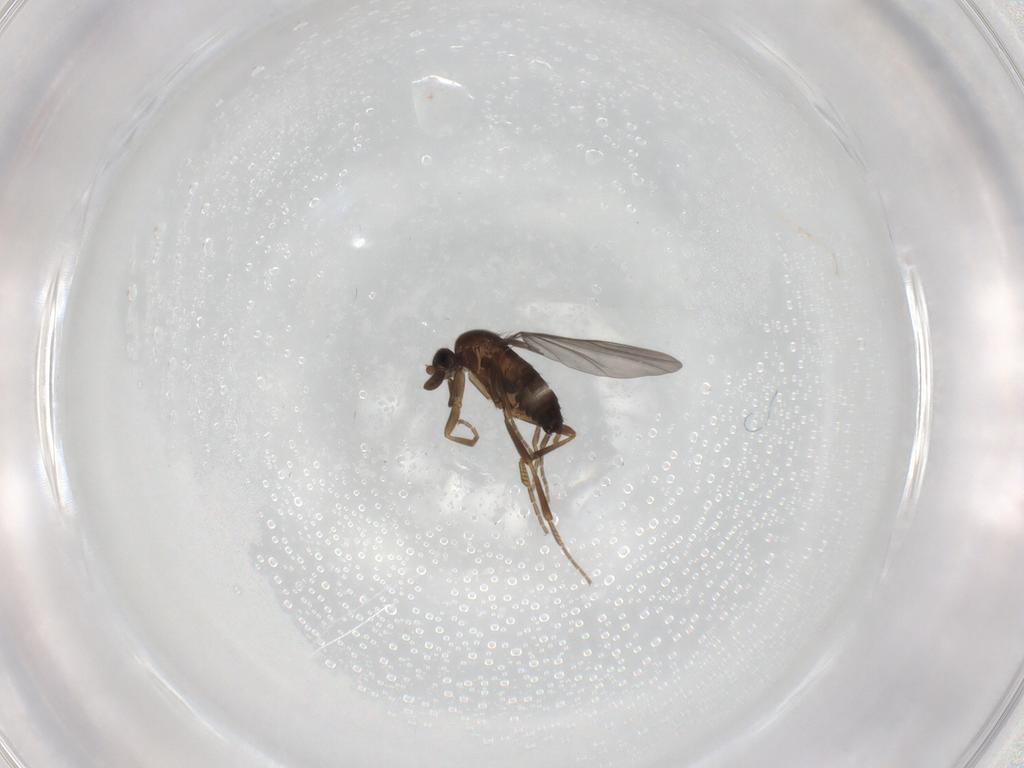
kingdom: Animalia
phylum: Arthropoda
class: Insecta
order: Diptera
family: Phoridae
